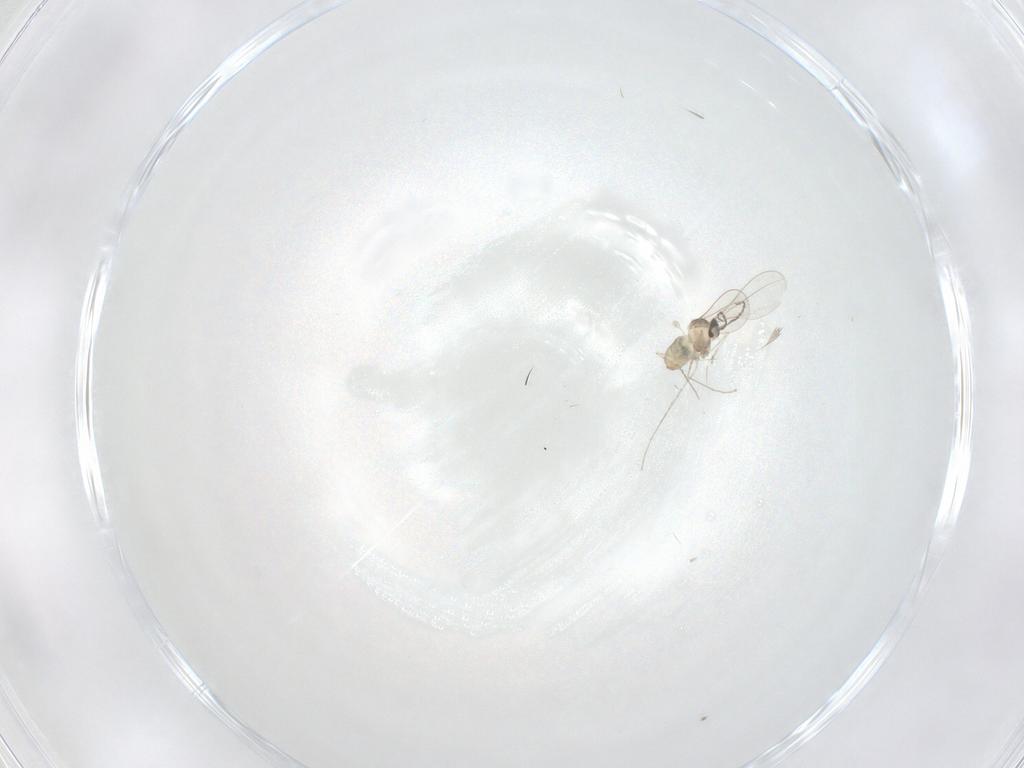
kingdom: Animalia
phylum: Arthropoda
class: Insecta
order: Diptera
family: Cecidomyiidae
